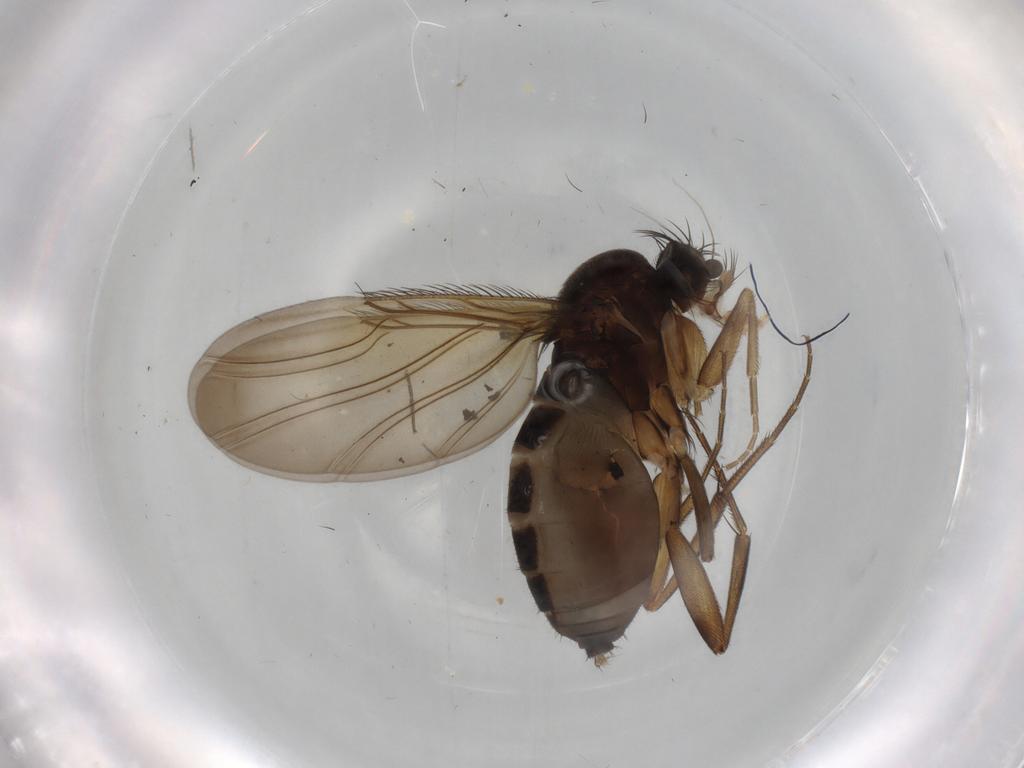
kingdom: Animalia
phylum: Arthropoda
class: Insecta
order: Diptera
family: Phoridae
